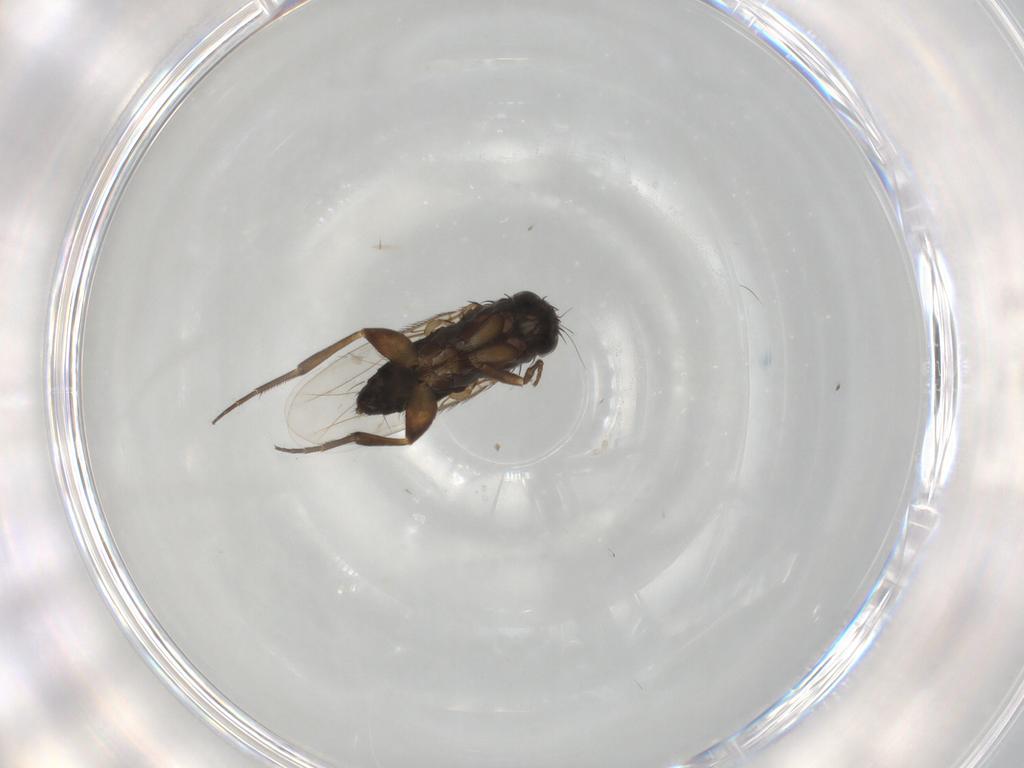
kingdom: Animalia
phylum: Arthropoda
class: Insecta
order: Diptera
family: Phoridae
